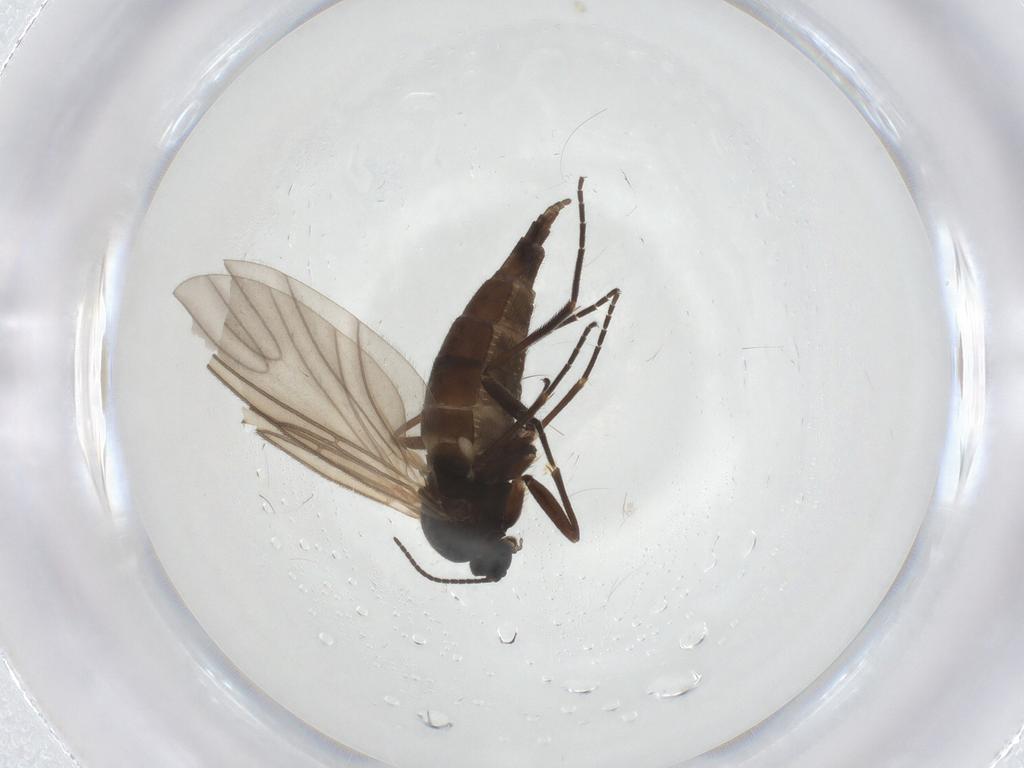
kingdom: Animalia
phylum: Arthropoda
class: Insecta
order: Diptera
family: Sciaridae
